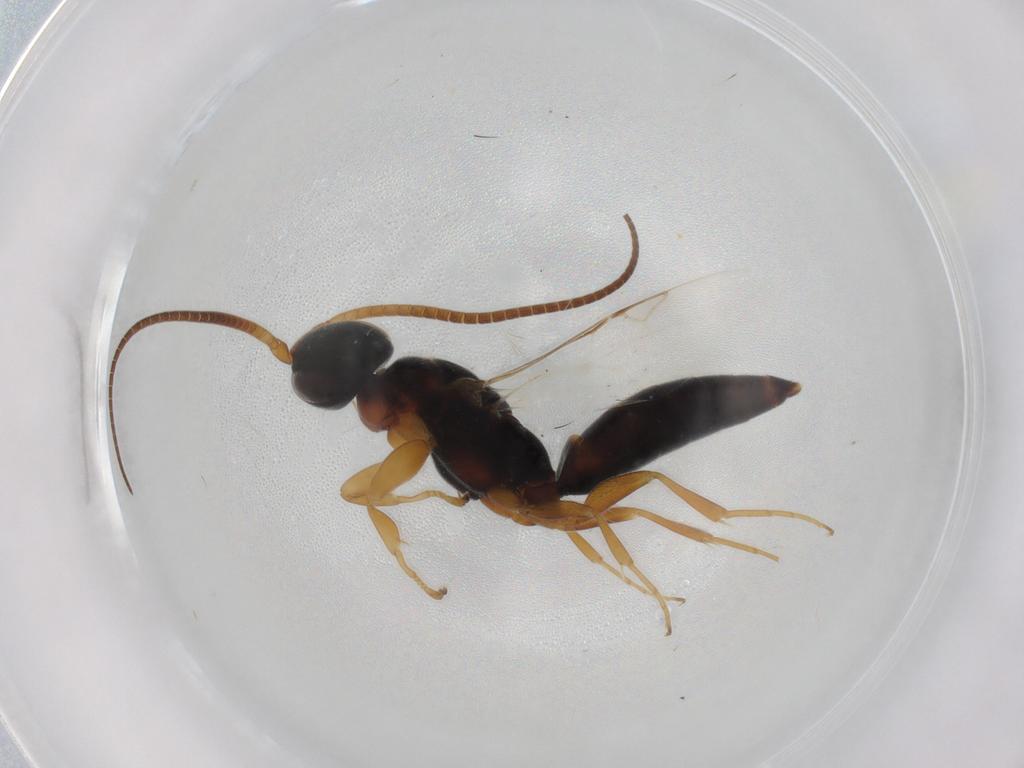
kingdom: Animalia
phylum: Arthropoda
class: Insecta
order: Hymenoptera
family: Sclerogibbidae
